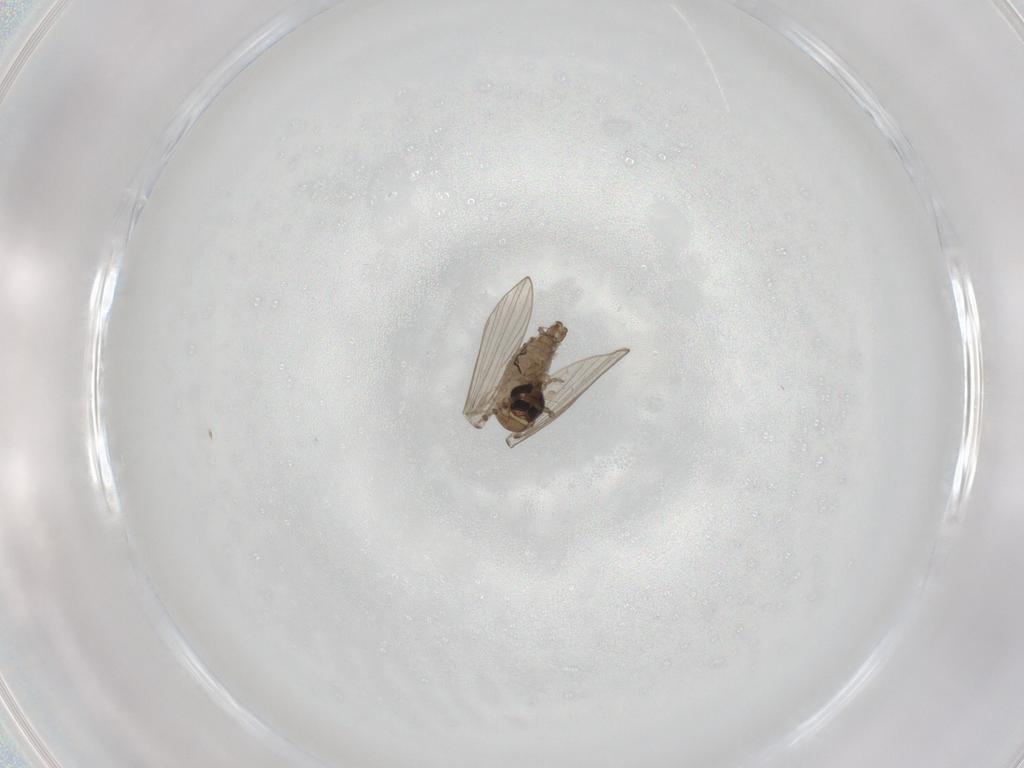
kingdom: Animalia
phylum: Arthropoda
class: Insecta
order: Diptera
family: Psychodidae
